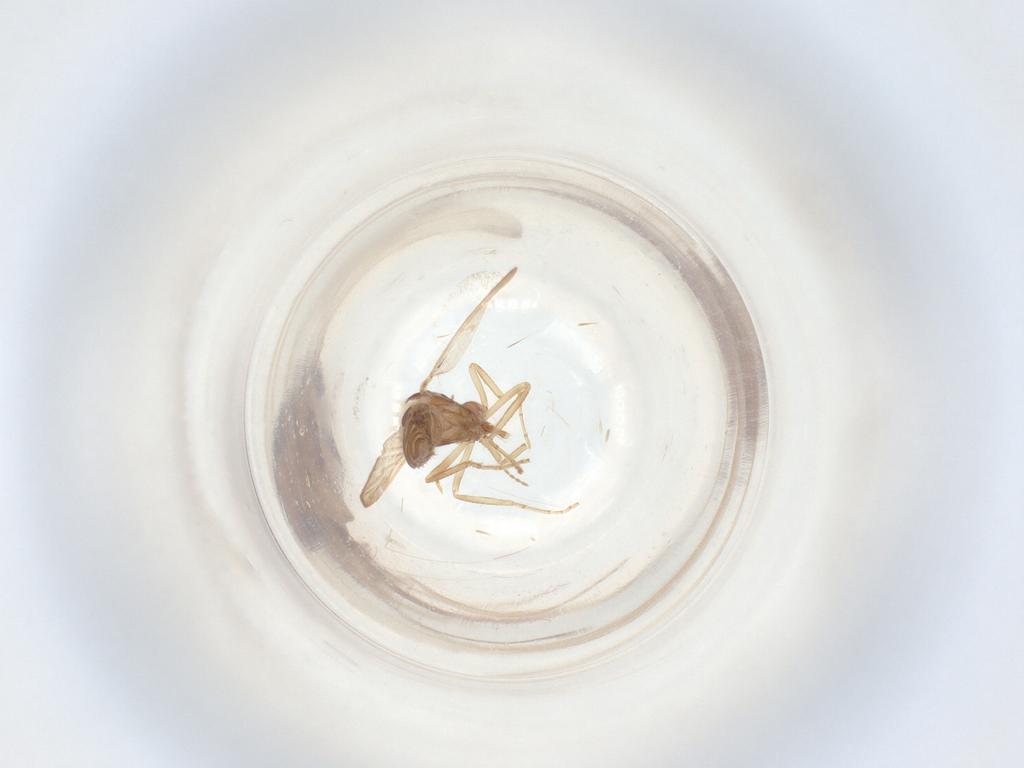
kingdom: Animalia
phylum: Arthropoda
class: Insecta
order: Diptera
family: Ceratopogonidae
